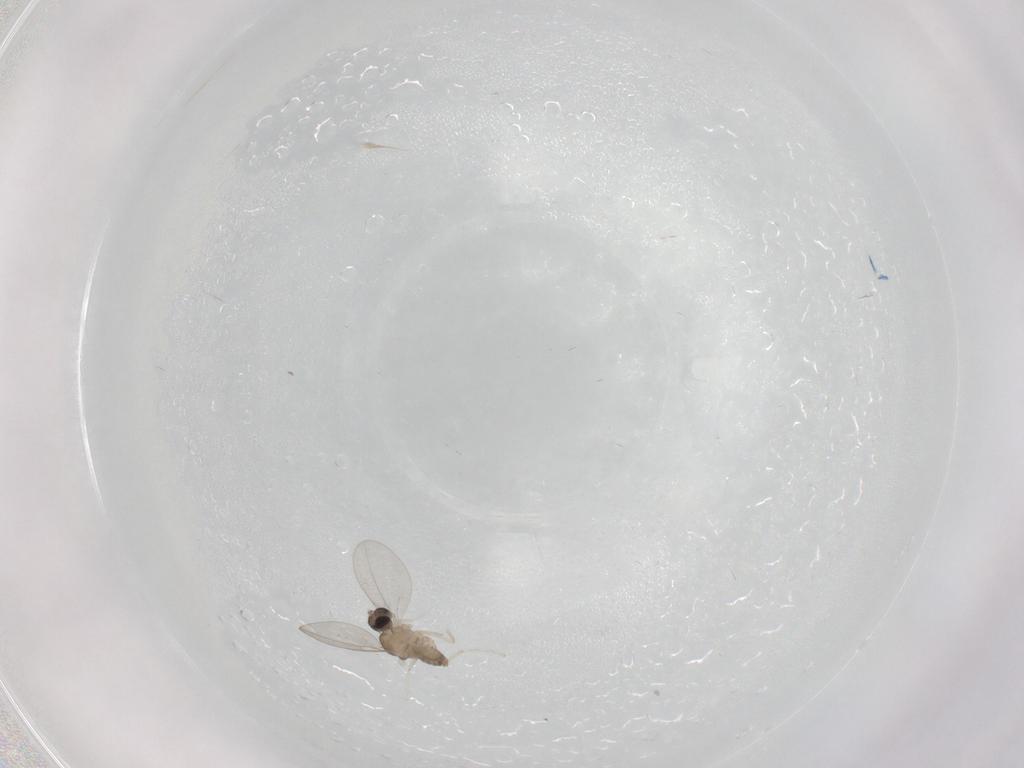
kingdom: Animalia
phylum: Arthropoda
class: Insecta
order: Diptera
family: Cecidomyiidae
